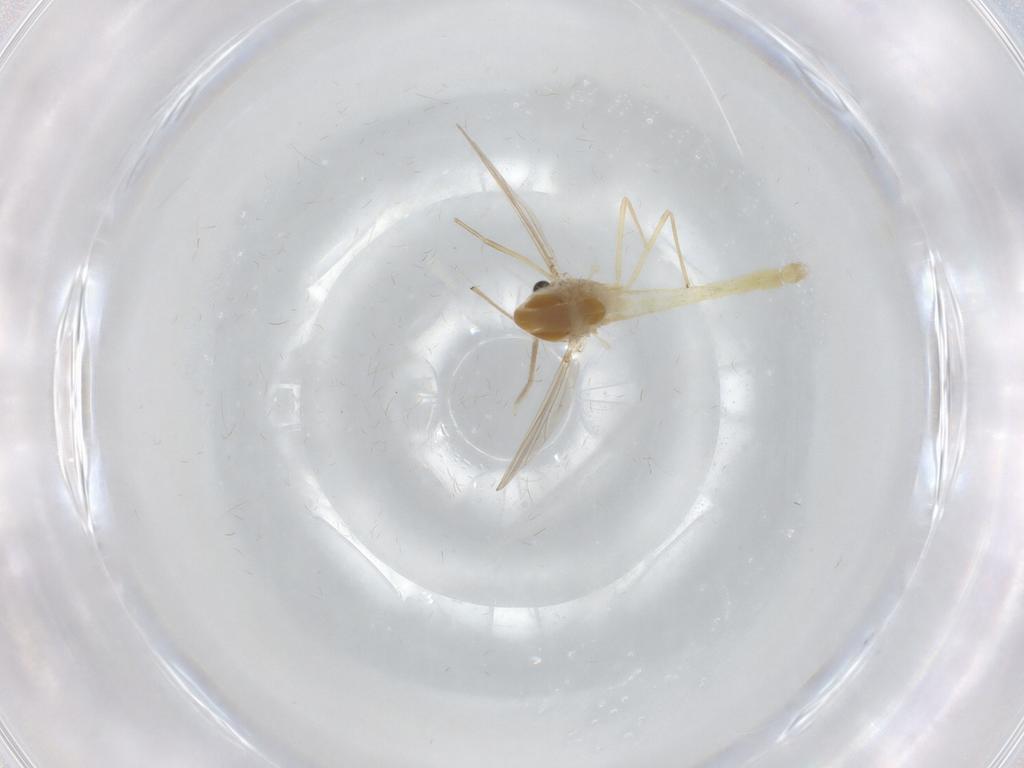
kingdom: Animalia
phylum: Arthropoda
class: Insecta
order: Diptera
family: Chironomidae
